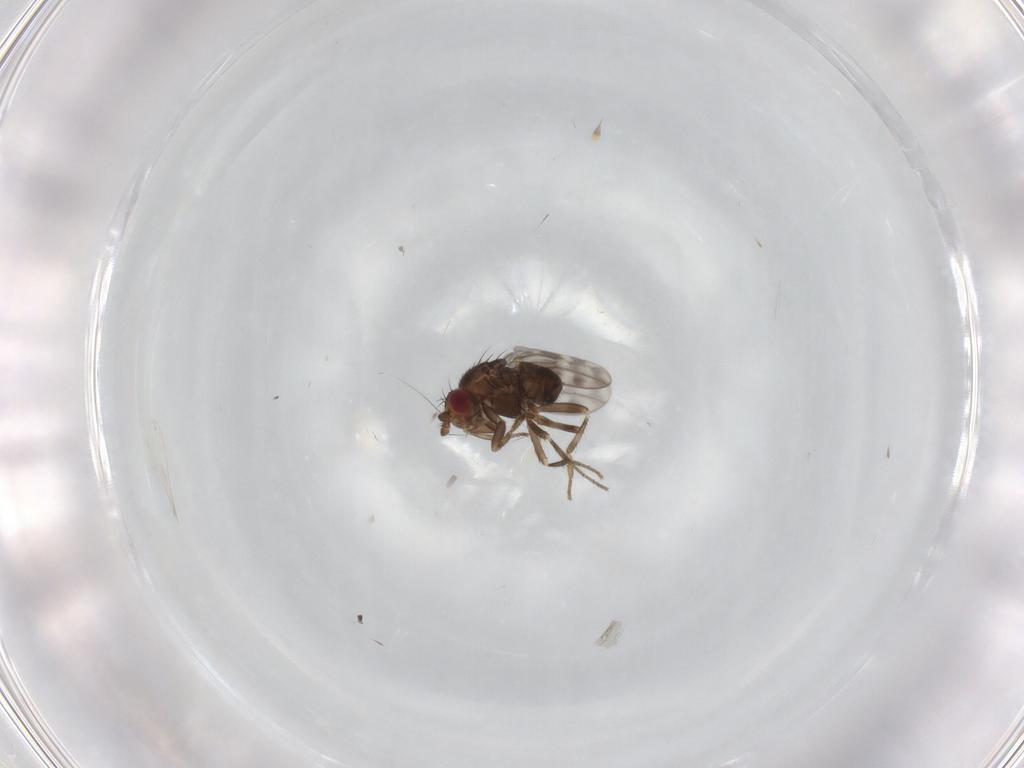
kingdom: Animalia
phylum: Arthropoda
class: Insecta
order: Diptera
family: Sphaeroceridae
